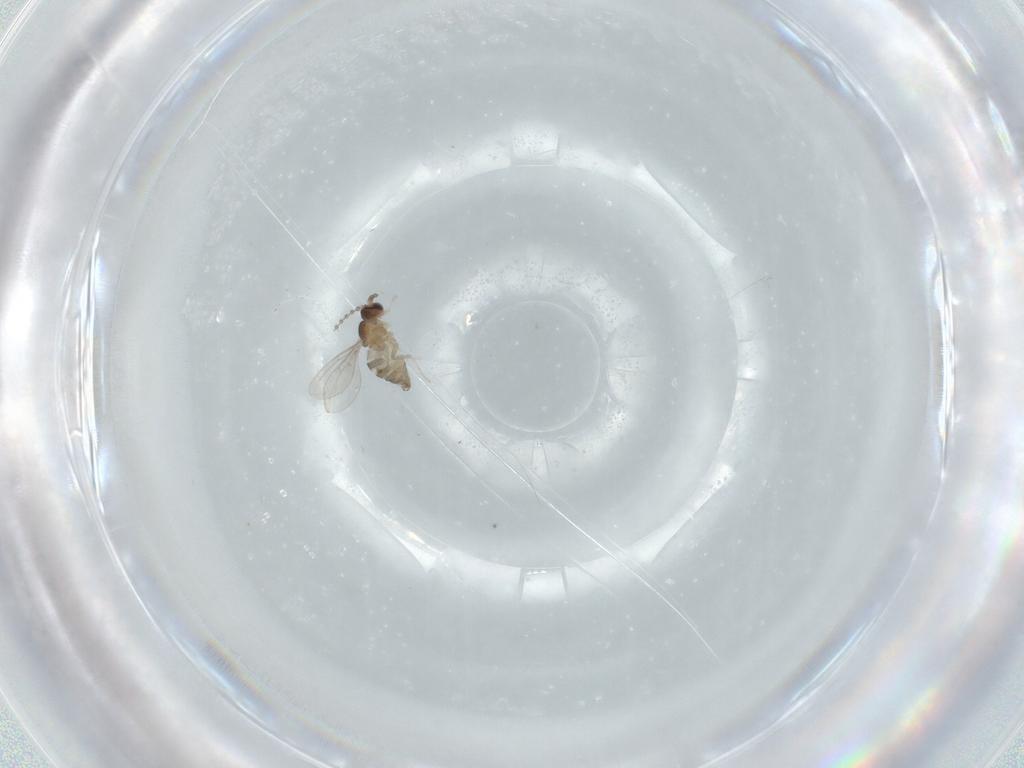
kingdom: Animalia
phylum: Arthropoda
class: Insecta
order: Diptera
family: Cecidomyiidae
